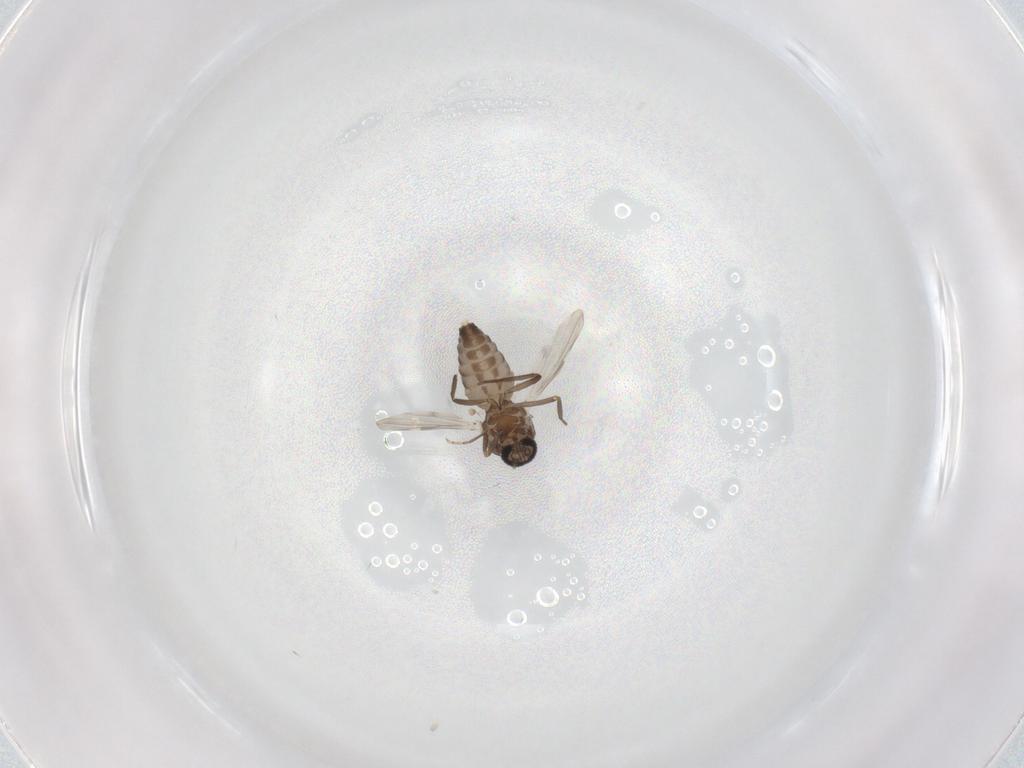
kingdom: Animalia
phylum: Arthropoda
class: Insecta
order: Diptera
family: Ceratopogonidae
